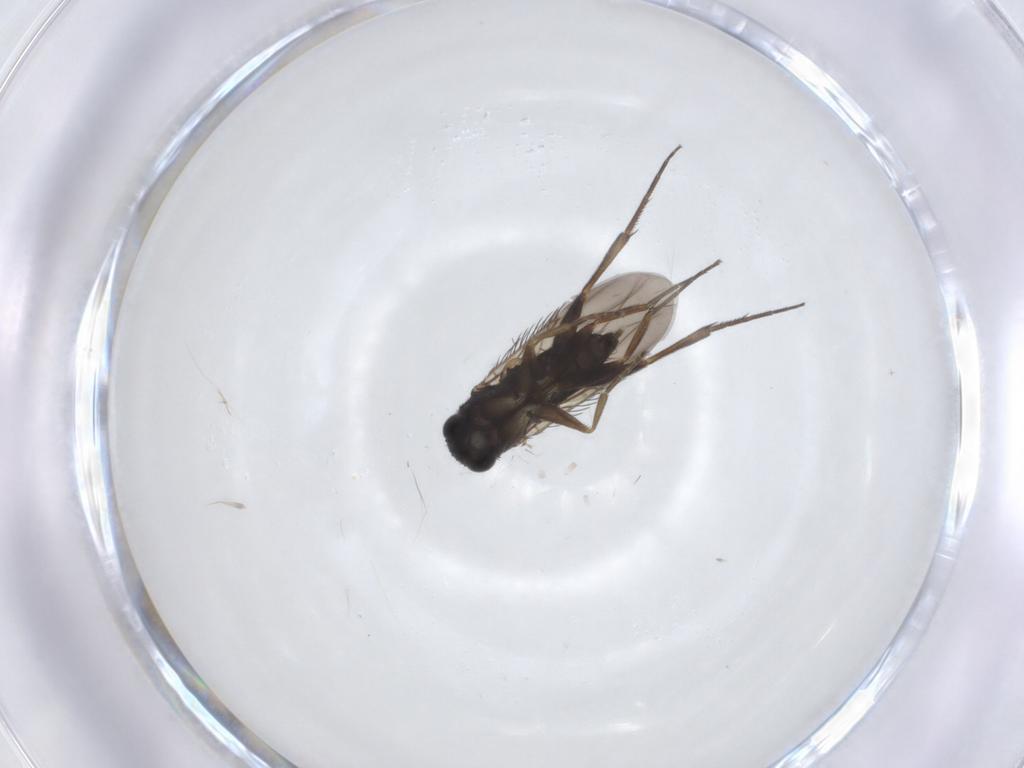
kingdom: Animalia
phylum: Arthropoda
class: Insecta
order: Diptera
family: Phoridae
